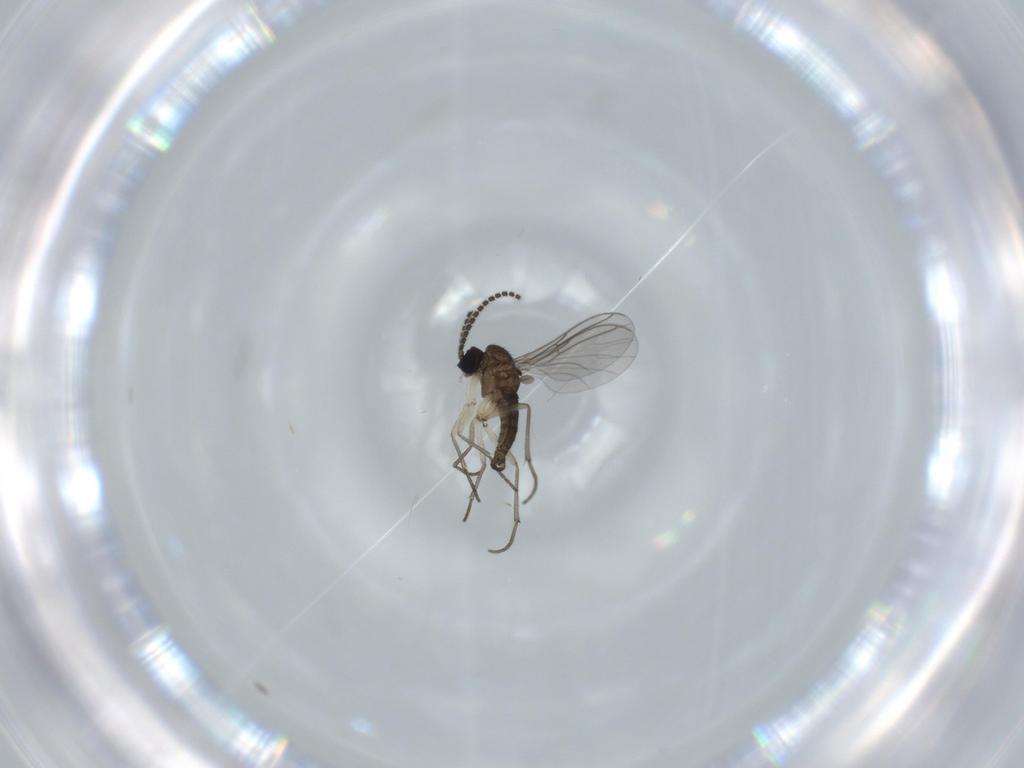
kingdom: Animalia
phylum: Arthropoda
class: Insecta
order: Diptera
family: Sciaridae
